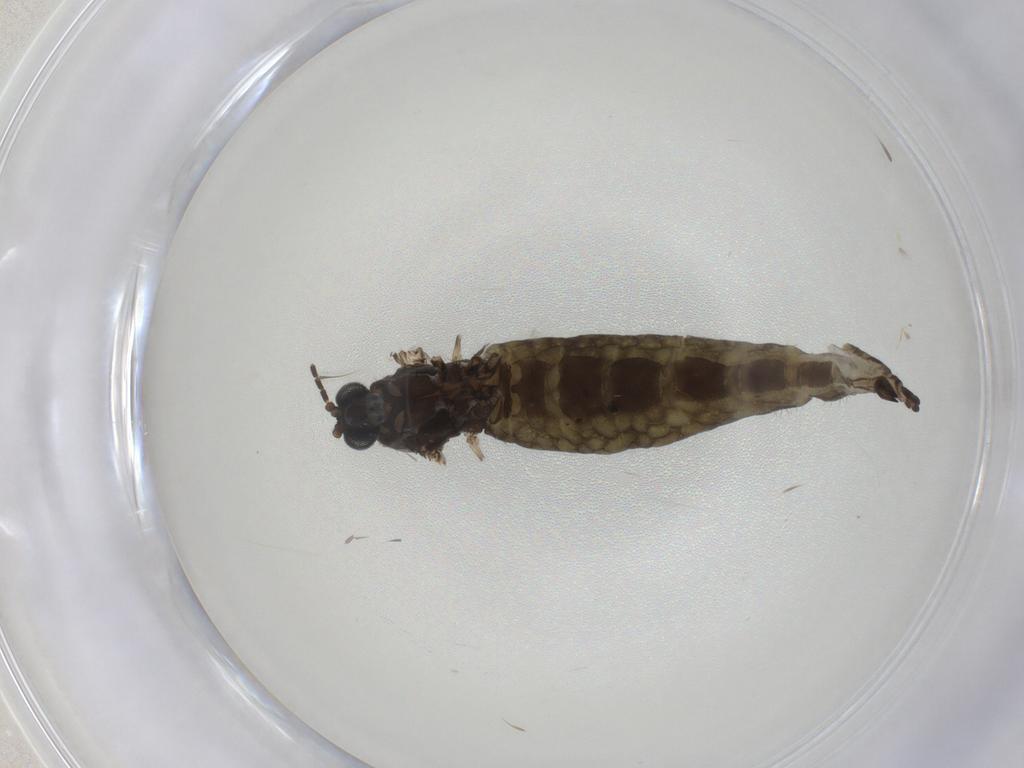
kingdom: Animalia
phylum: Arthropoda
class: Insecta
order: Diptera
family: Sciaridae
